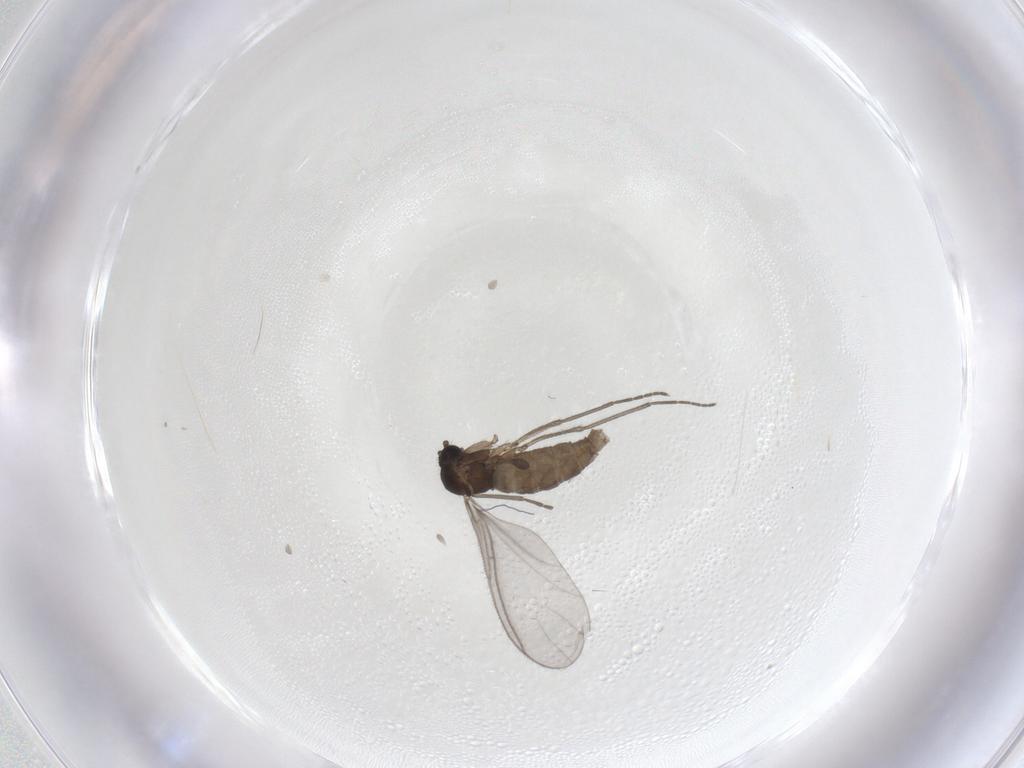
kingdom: Animalia
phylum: Arthropoda
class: Insecta
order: Diptera
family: Sciaridae
